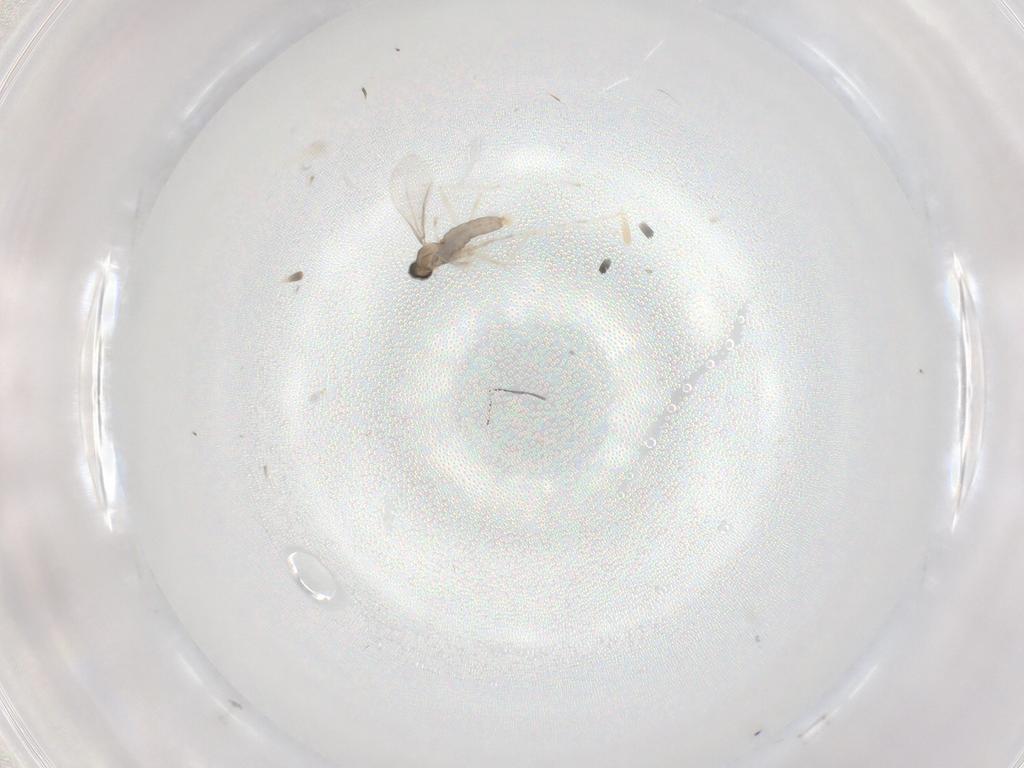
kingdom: Animalia
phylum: Arthropoda
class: Insecta
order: Diptera
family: Cecidomyiidae
